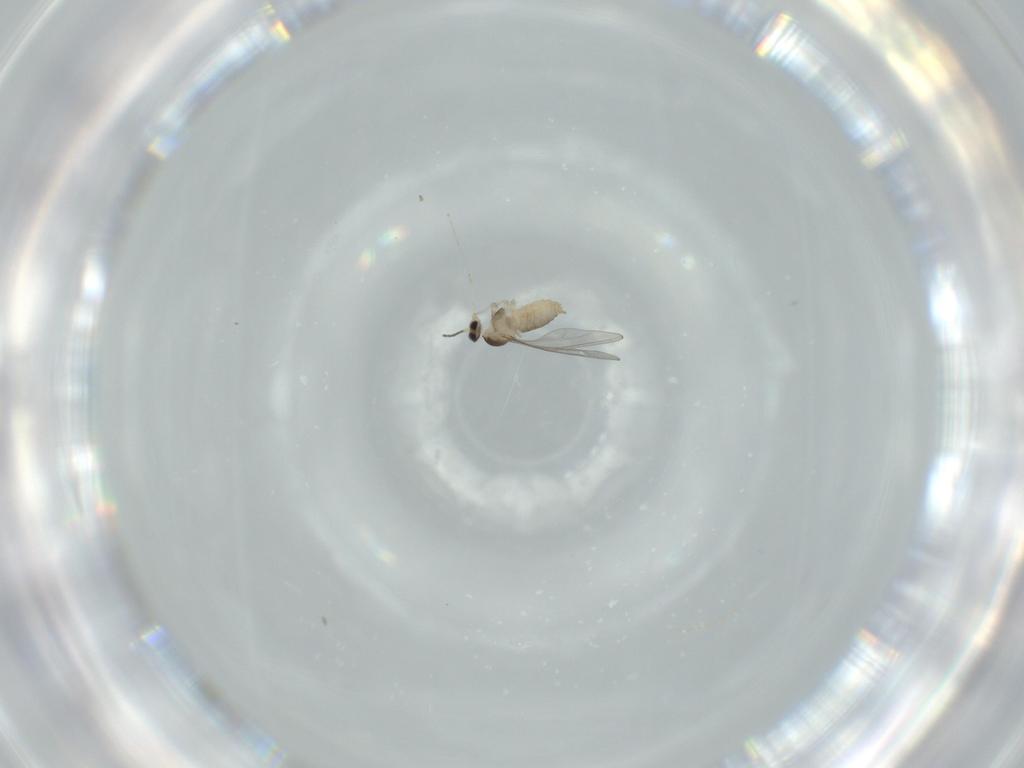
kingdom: Animalia
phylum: Arthropoda
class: Insecta
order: Diptera
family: Cecidomyiidae
